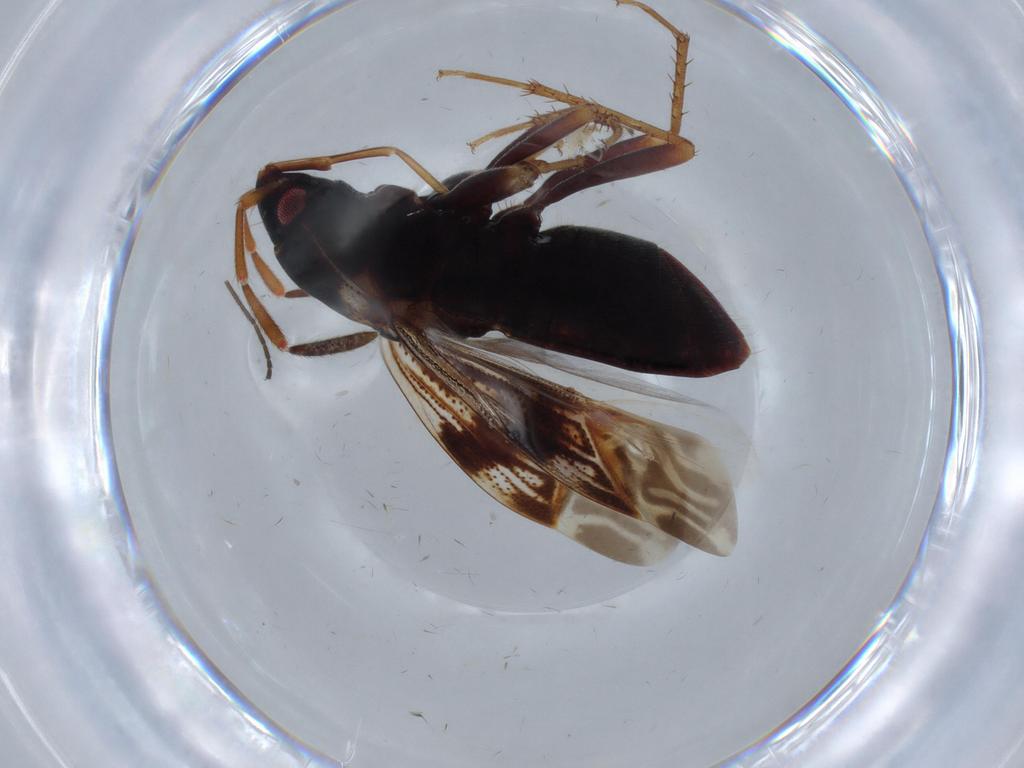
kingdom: Animalia
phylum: Arthropoda
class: Insecta
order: Hemiptera
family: Rhyparochromidae
